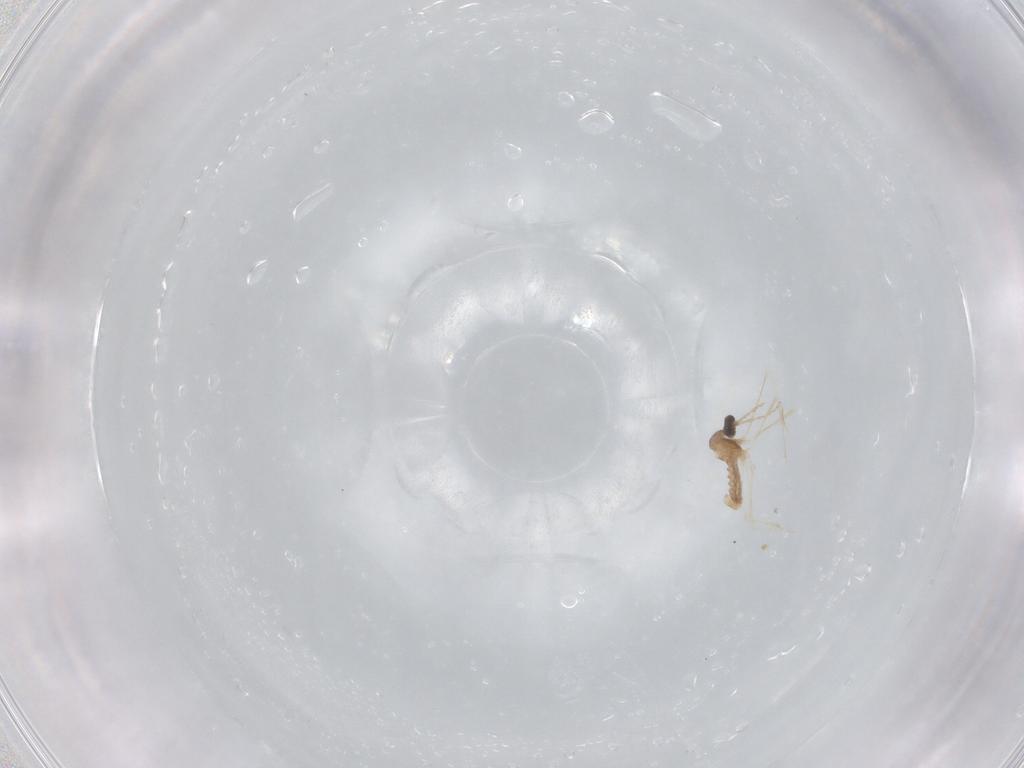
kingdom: Animalia
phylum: Arthropoda
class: Insecta
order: Diptera
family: Cecidomyiidae
